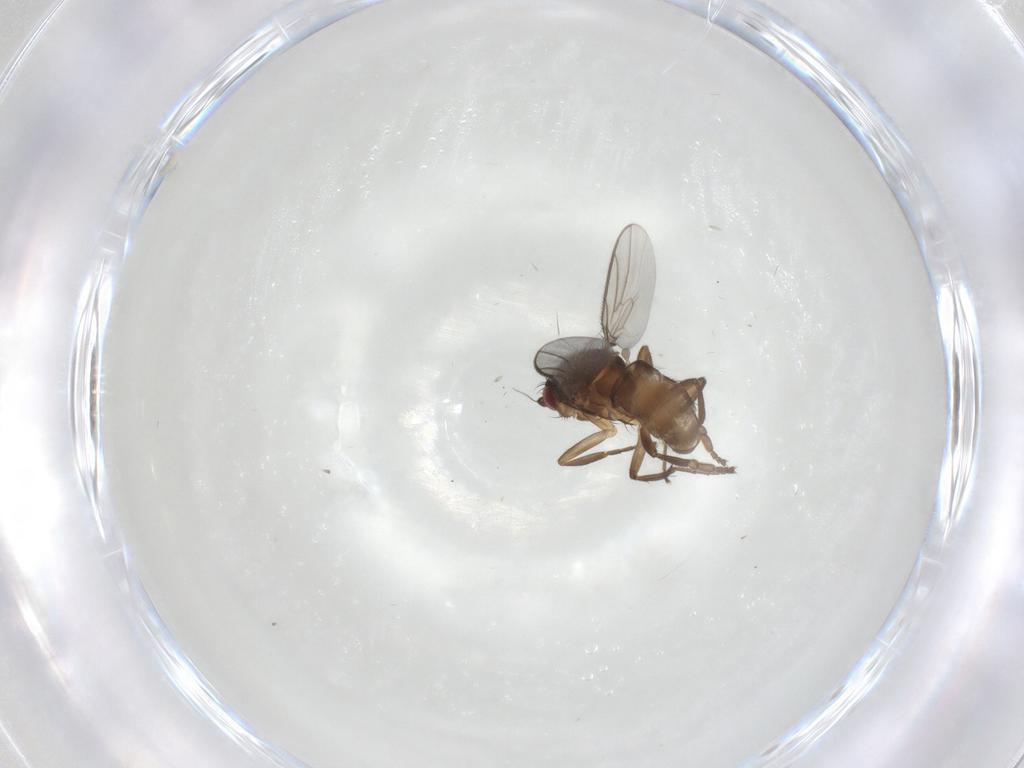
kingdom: Animalia
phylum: Arthropoda
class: Insecta
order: Diptera
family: Sphaeroceridae
